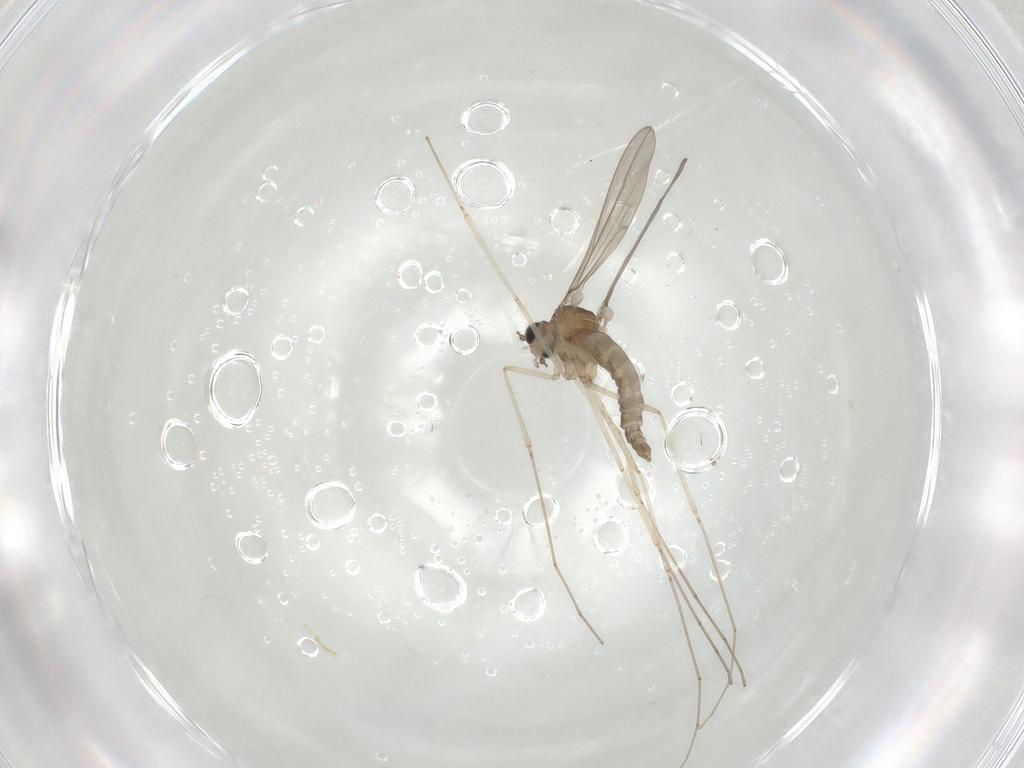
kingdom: Animalia
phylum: Arthropoda
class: Insecta
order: Diptera
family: Cecidomyiidae
